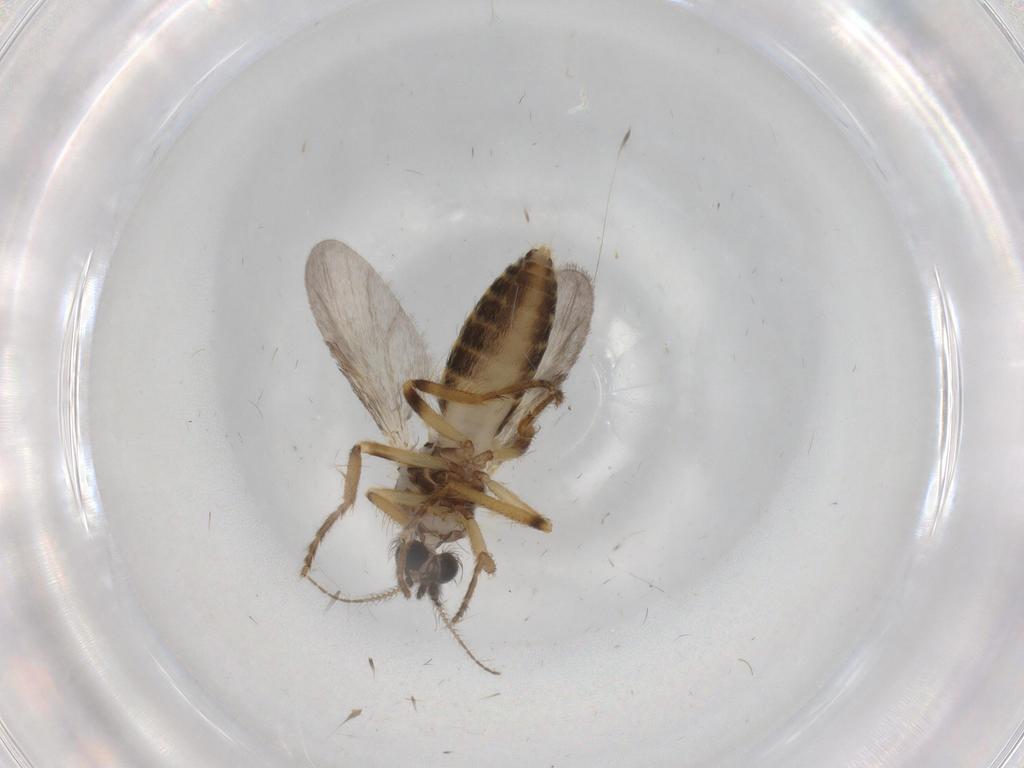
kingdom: Animalia
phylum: Arthropoda
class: Insecta
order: Diptera
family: Ceratopogonidae
